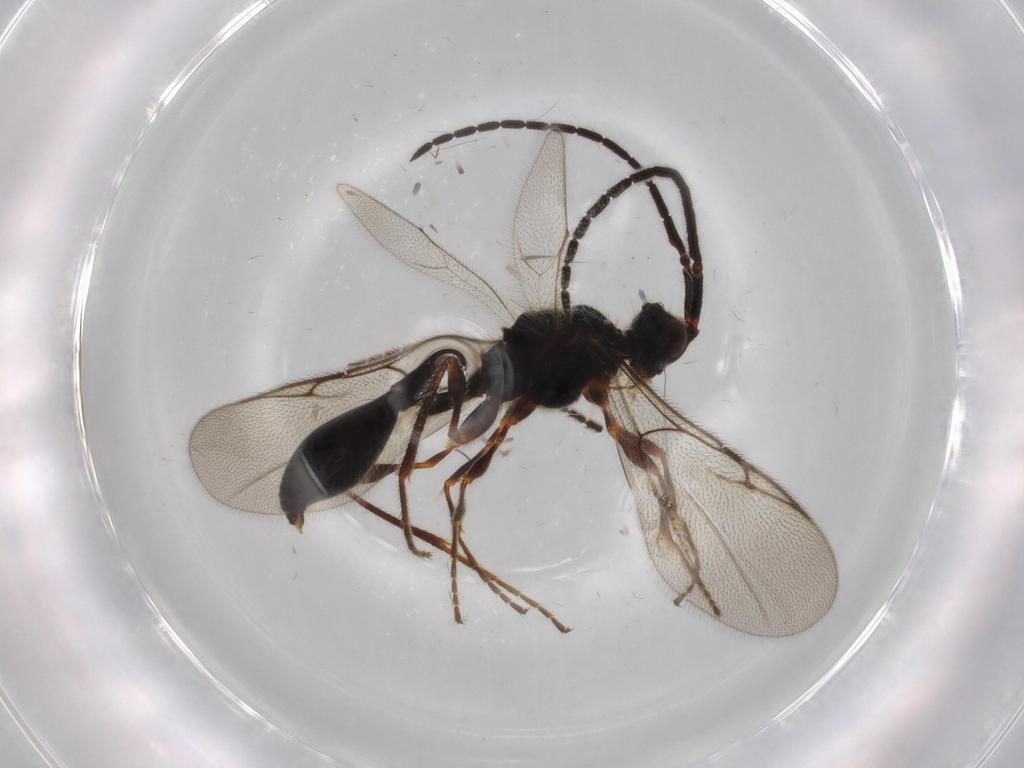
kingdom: Animalia
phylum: Arthropoda
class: Insecta
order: Hymenoptera
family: Diapriidae
